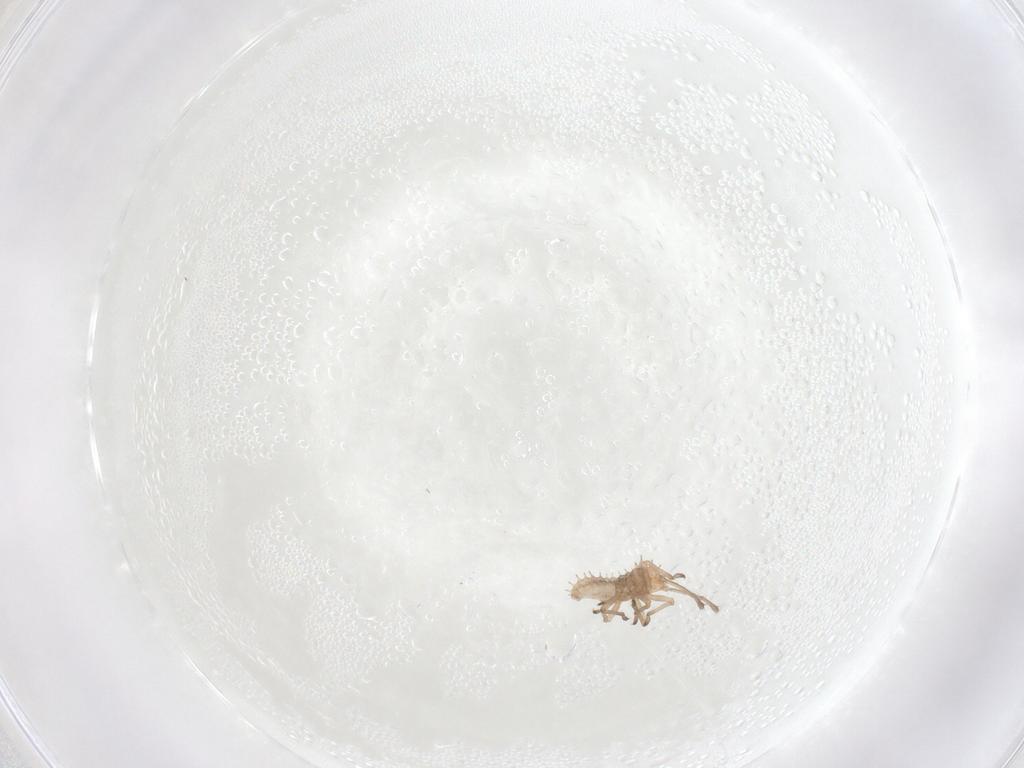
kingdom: Animalia
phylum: Arthropoda
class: Insecta
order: Hemiptera
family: Tingidae
